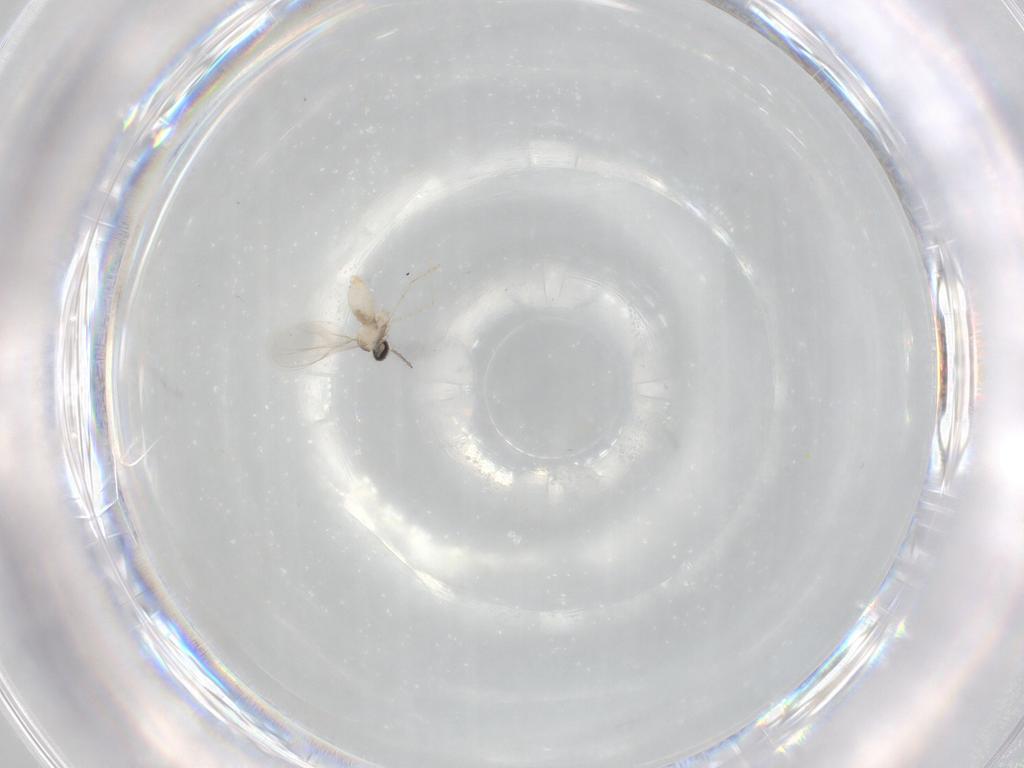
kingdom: Animalia
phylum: Arthropoda
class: Insecta
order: Diptera
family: Cecidomyiidae
